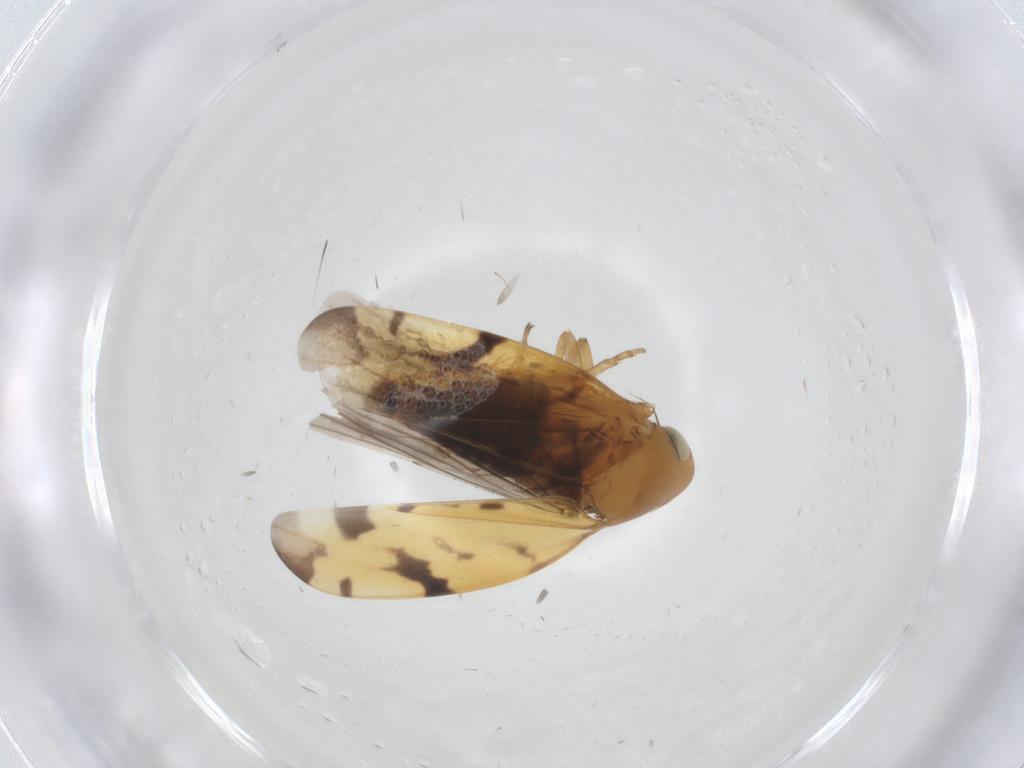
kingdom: Animalia
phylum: Arthropoda
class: Insecta
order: Hemiptera
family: Cicadellidae
